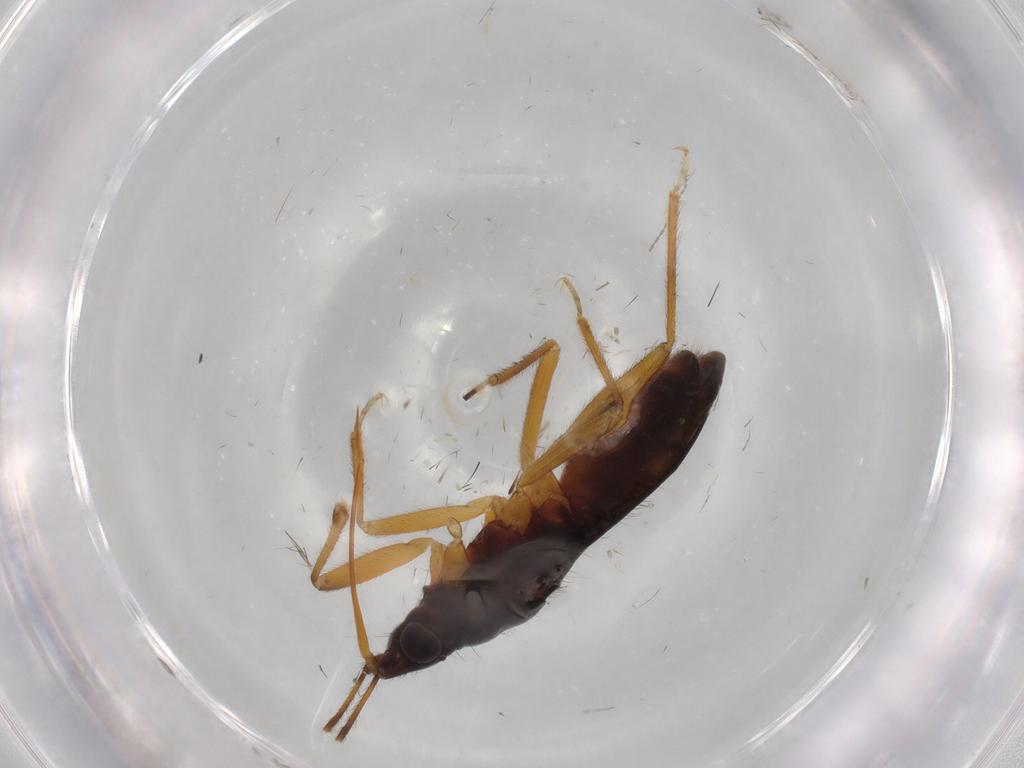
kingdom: Animalia
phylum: Arthropoda
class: Insecta
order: Hemiptera
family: Anthocoridae
